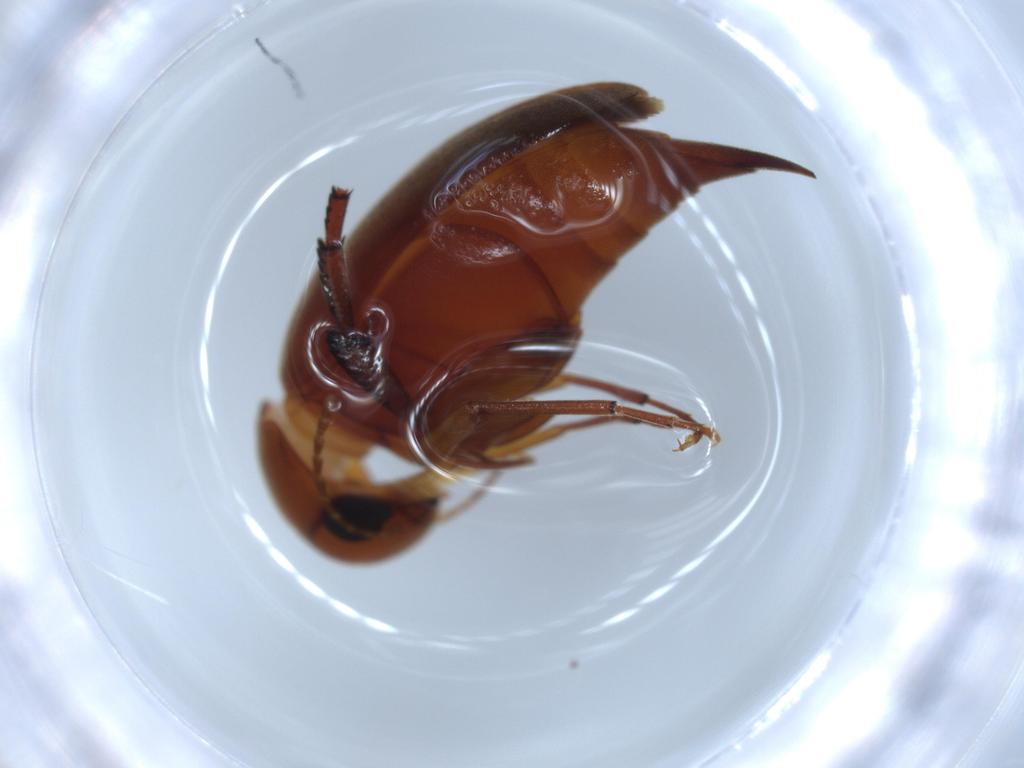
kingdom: Animalia
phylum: Arthropoda
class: Insecta
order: Coleoptera
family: Mordellidae
